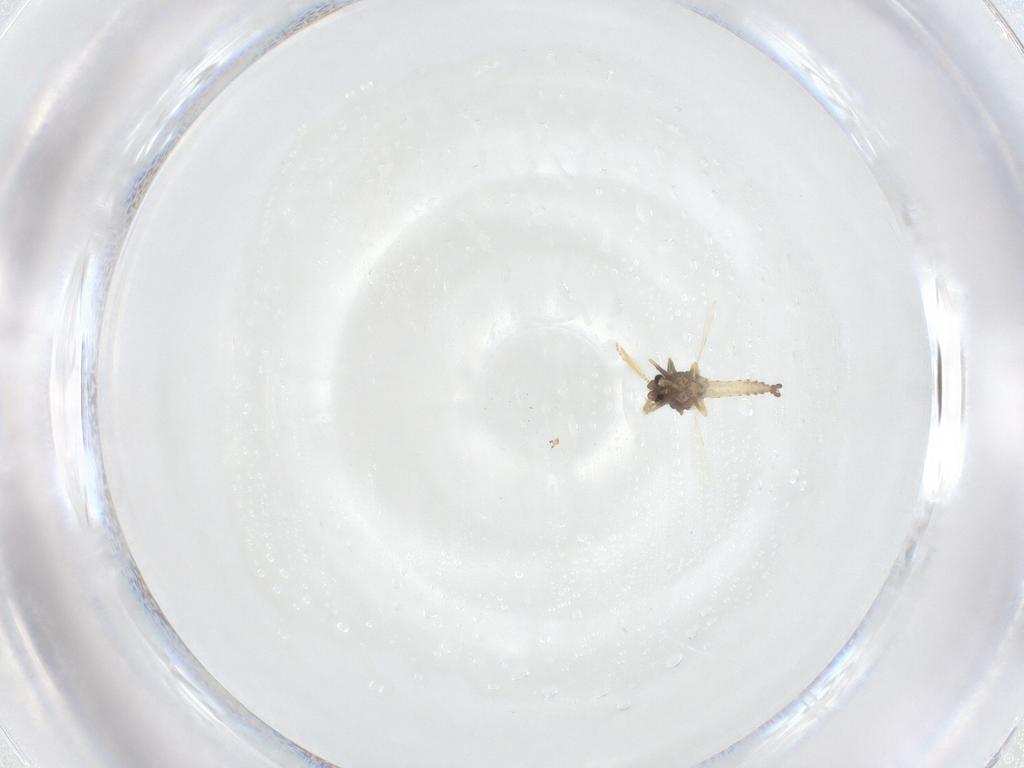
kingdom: Animalia
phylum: Arthropoda
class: Insecta
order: Diptera
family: Ceratopogonidae
